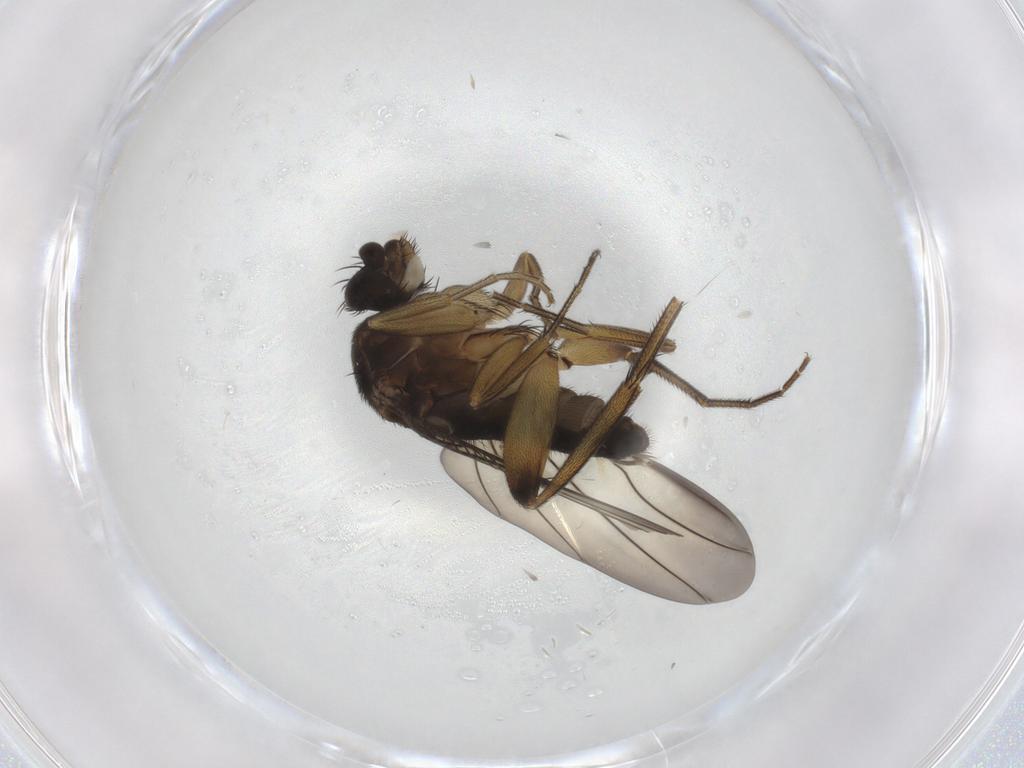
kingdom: Animalia
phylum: Arthropoda
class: Insecta
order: Diptera
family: Phoridae
